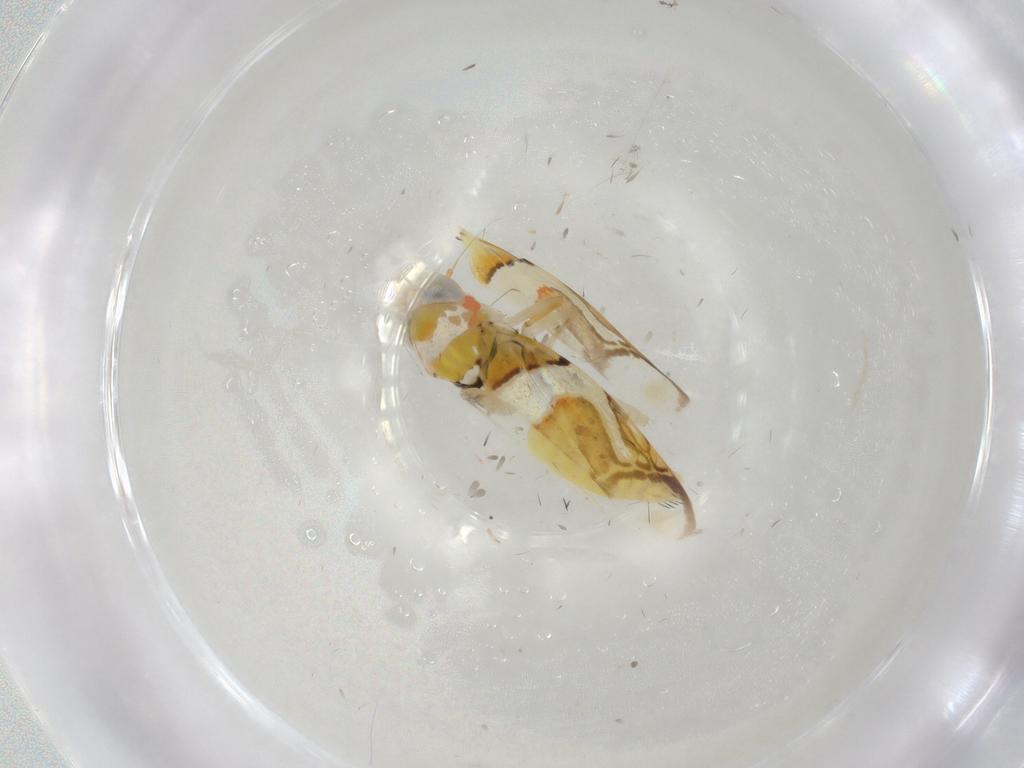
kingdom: Animalia
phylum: Arthropoda
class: Insecta
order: Hemiptera
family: Cicadellidae
